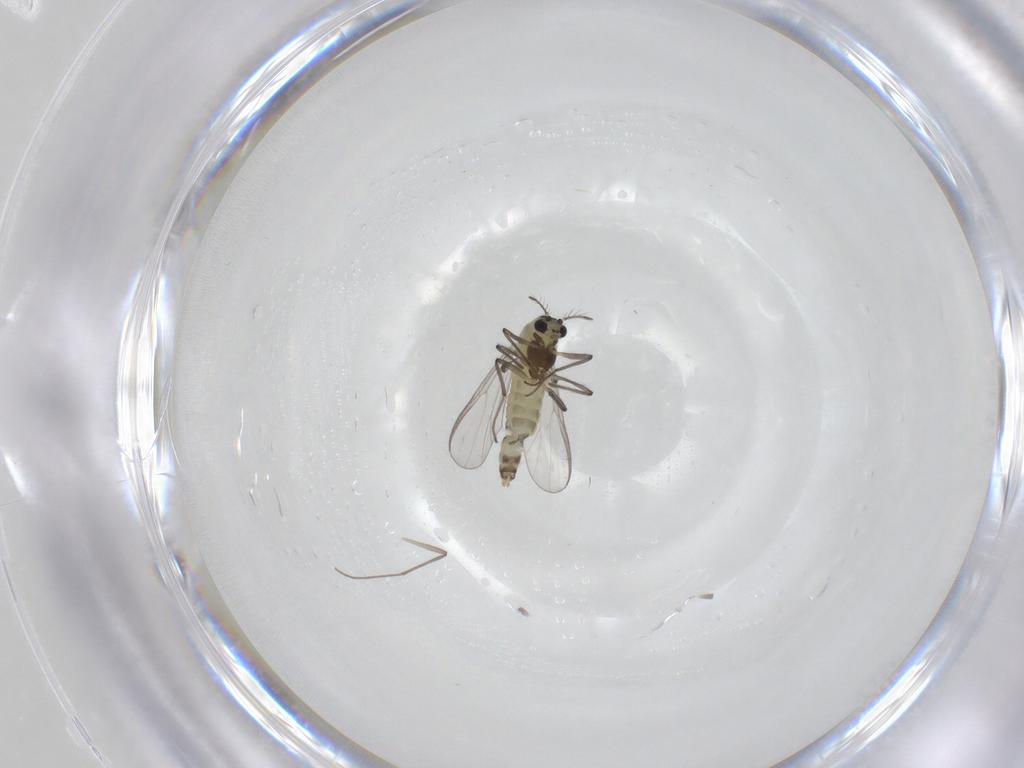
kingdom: Animalia
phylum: Arthropoda
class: Insecta
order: Diptera
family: Chironomidae
